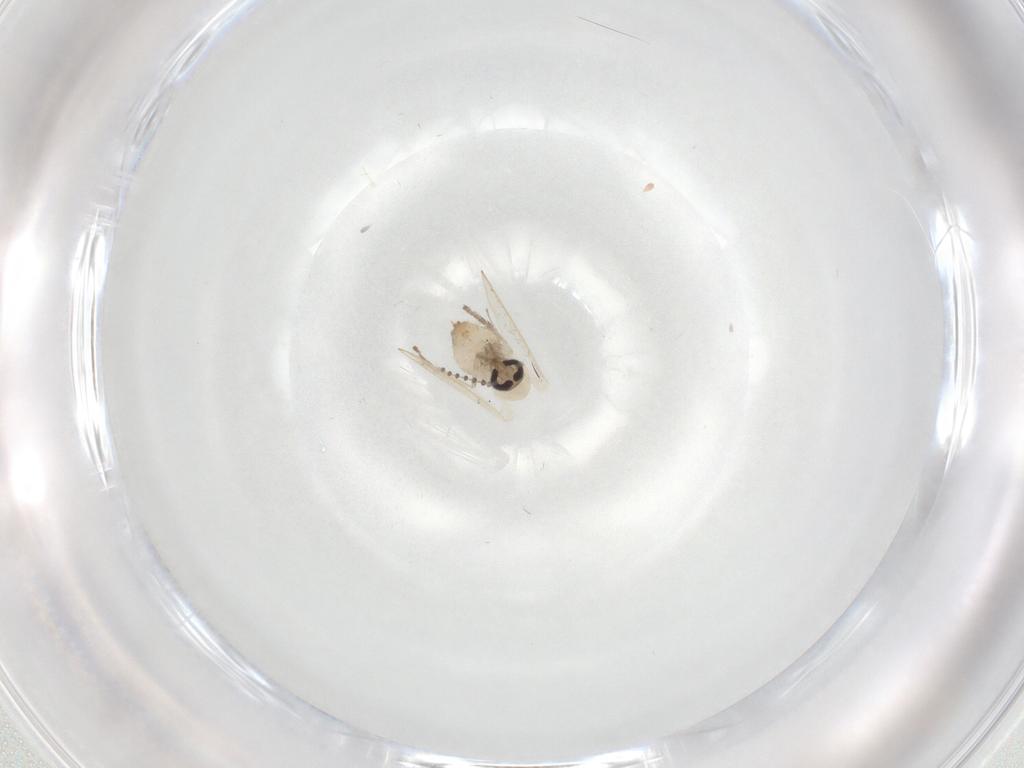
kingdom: Animalia
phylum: Arthropoda
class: Insecta
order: Diptera
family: Psychodidae
